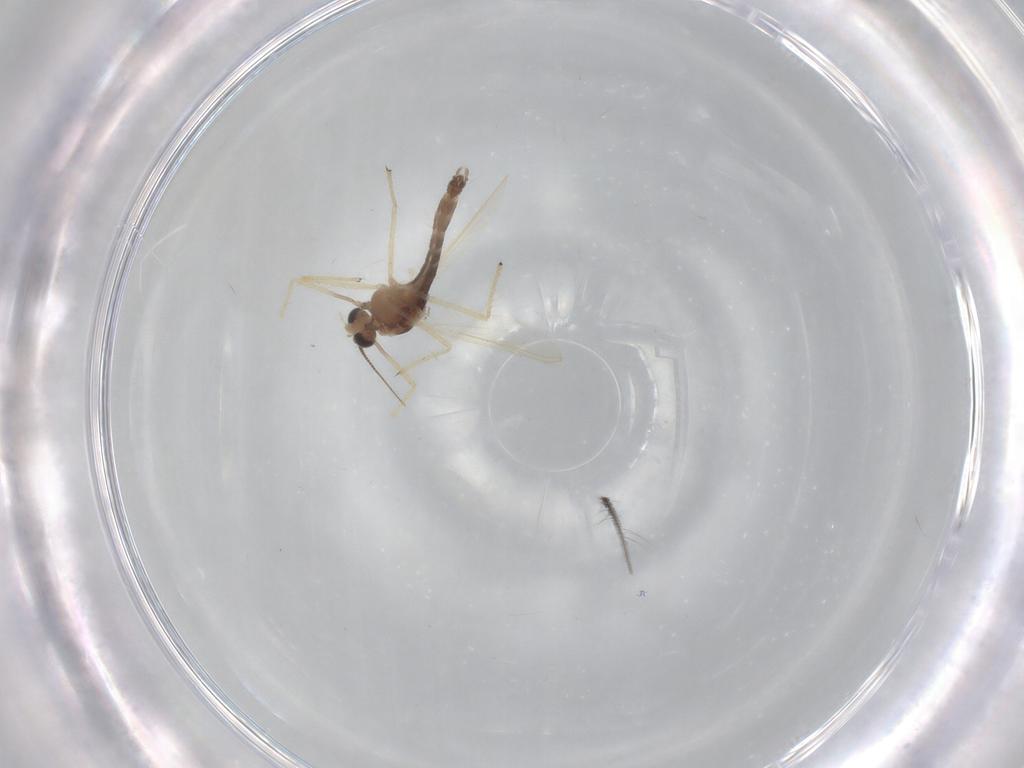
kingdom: Animalia
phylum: Arthropoda
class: Insecta
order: Diptera
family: Chironomidae
